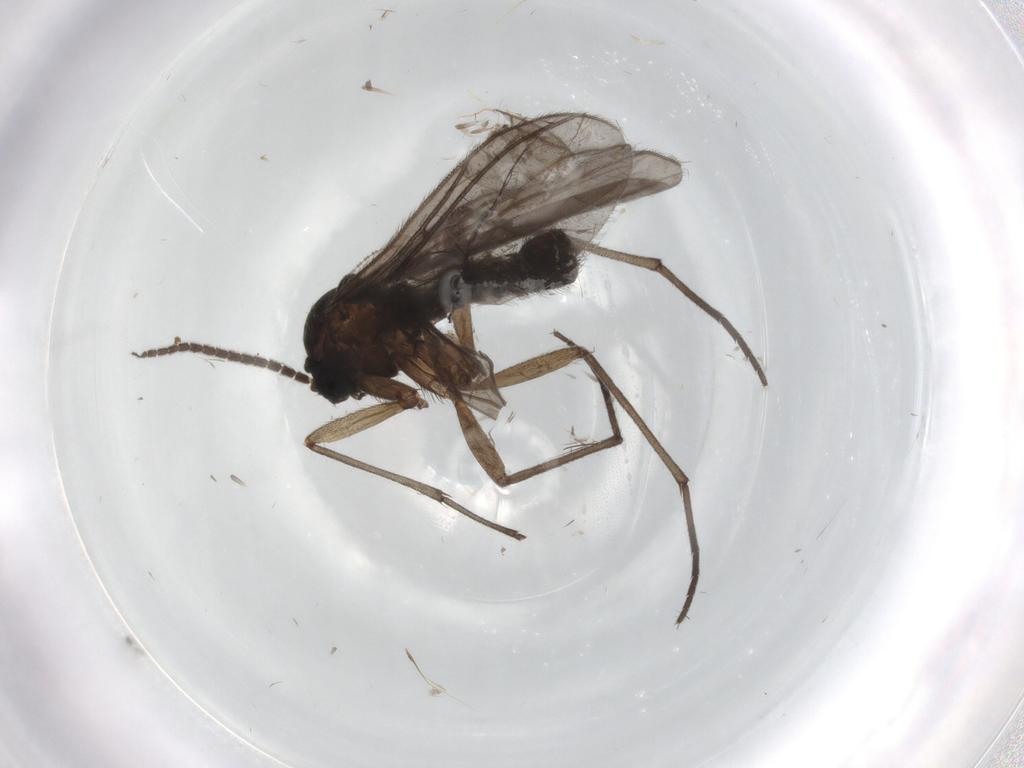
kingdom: Animalia
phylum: Arthropoda
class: Insecta
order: Diptera
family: Sciaridae
